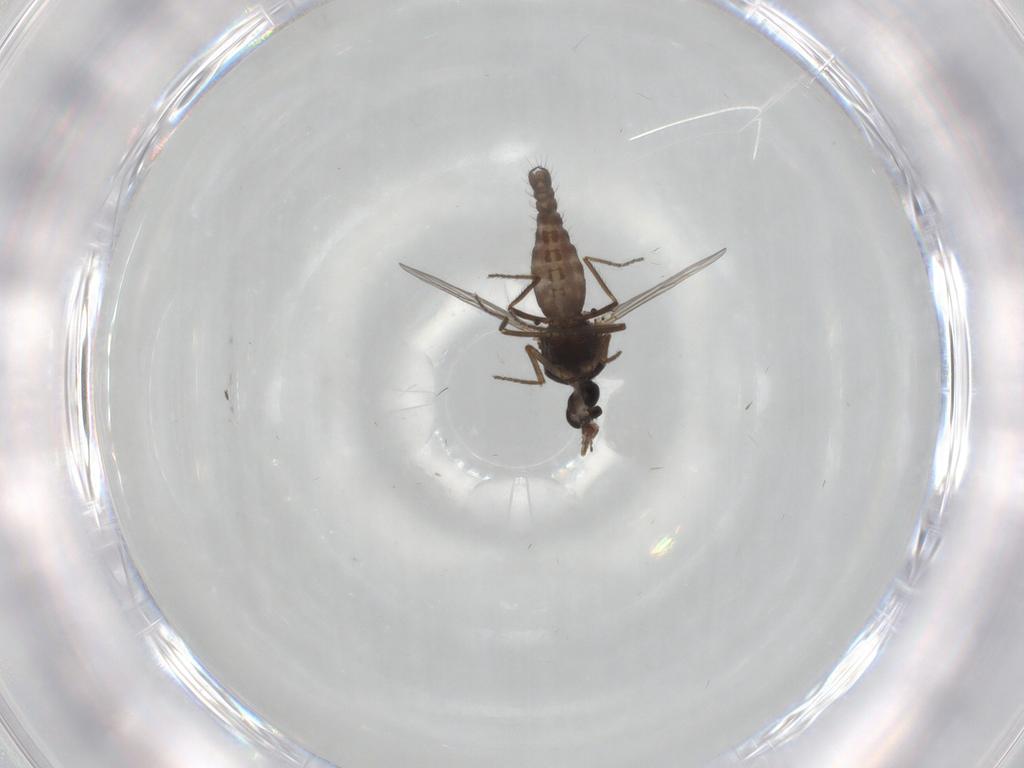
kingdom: Animalia
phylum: Arthropoda
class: Insecta
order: Diptera
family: Ceratopogonidae
